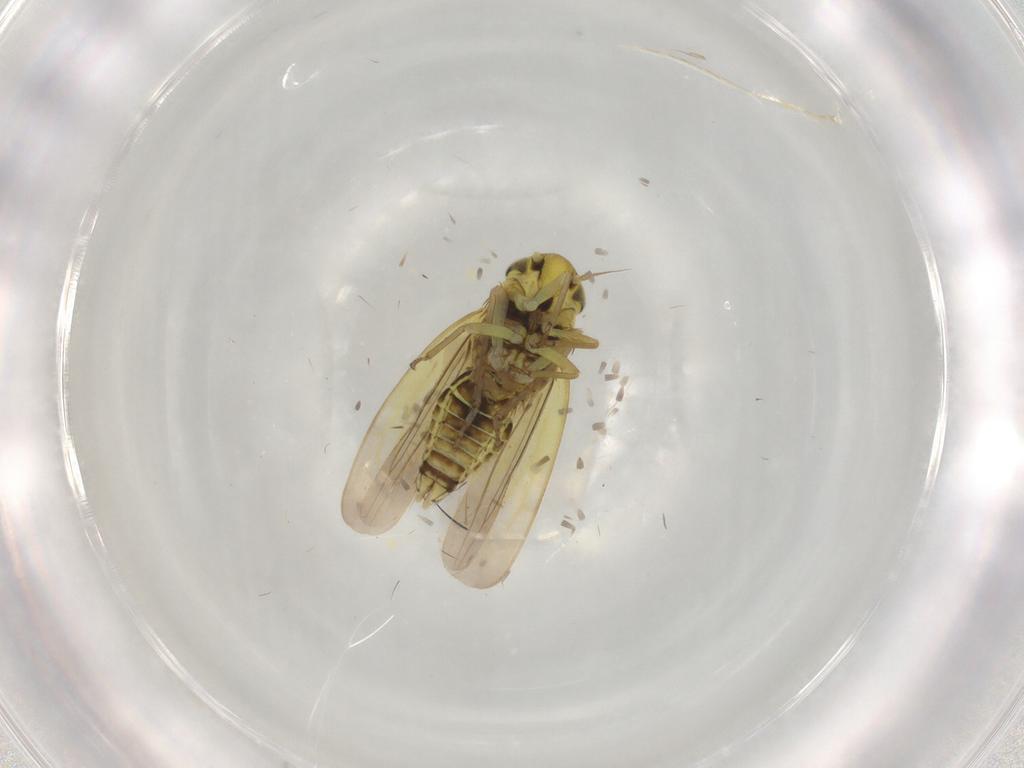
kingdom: Animalia
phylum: Arthropoda
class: Insecta
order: Hemiptera
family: Cicadellidae
